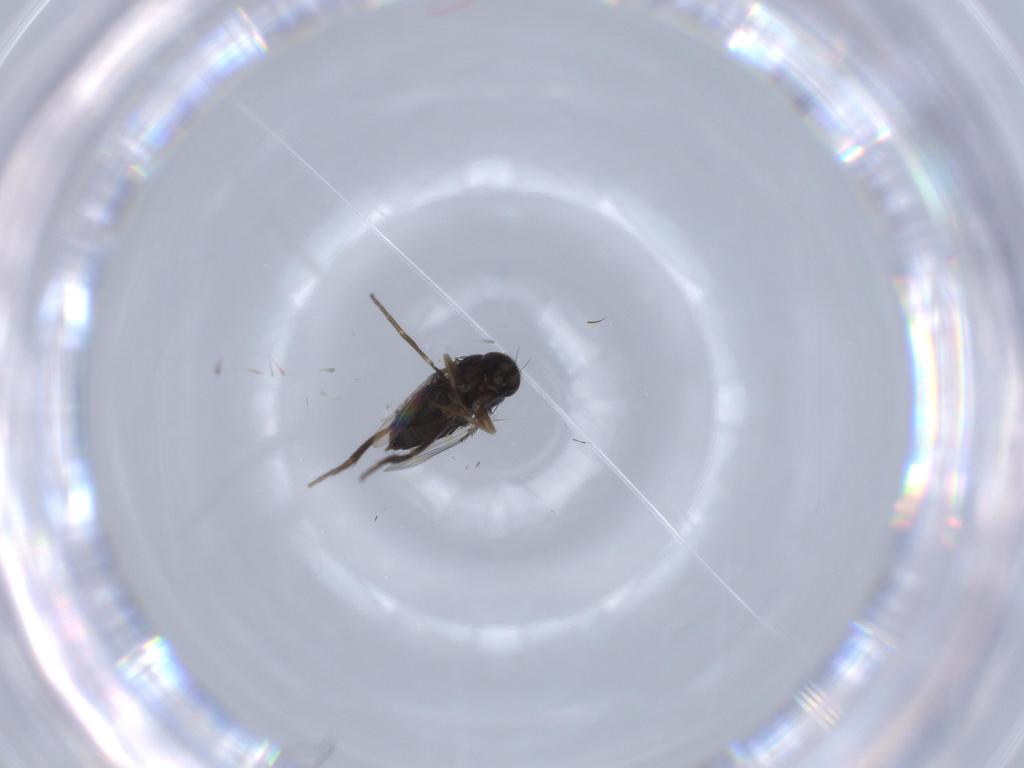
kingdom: Animalia
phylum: Arthropoda
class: Insecta
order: Diptera
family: Phoridae
